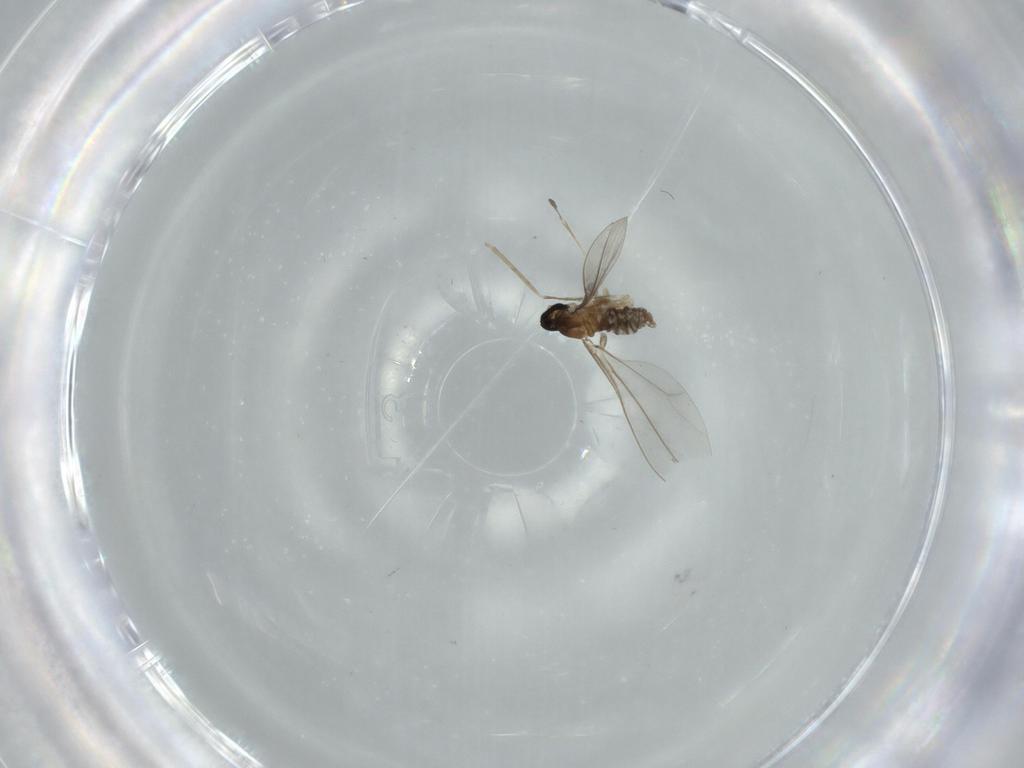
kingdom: Animalia
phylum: Arthropoda
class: Insecta
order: Diptera
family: Cecidomyiidae
